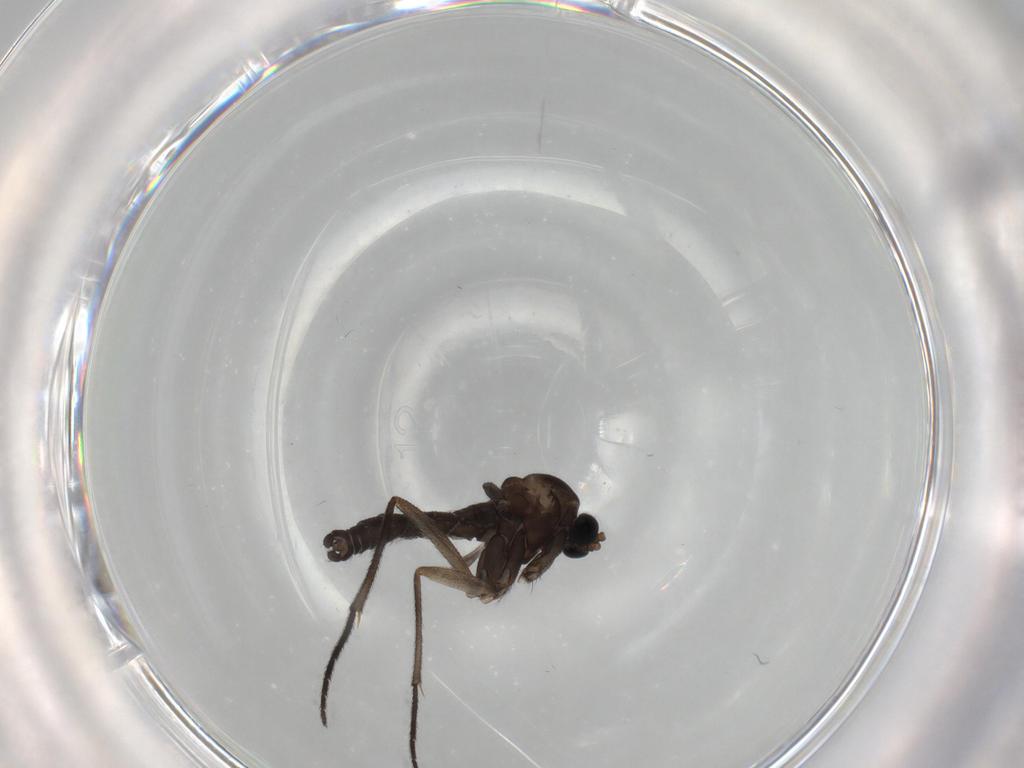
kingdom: Animalia
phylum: Arthropoda
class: Insecta
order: Diptera
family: Sciaridae
